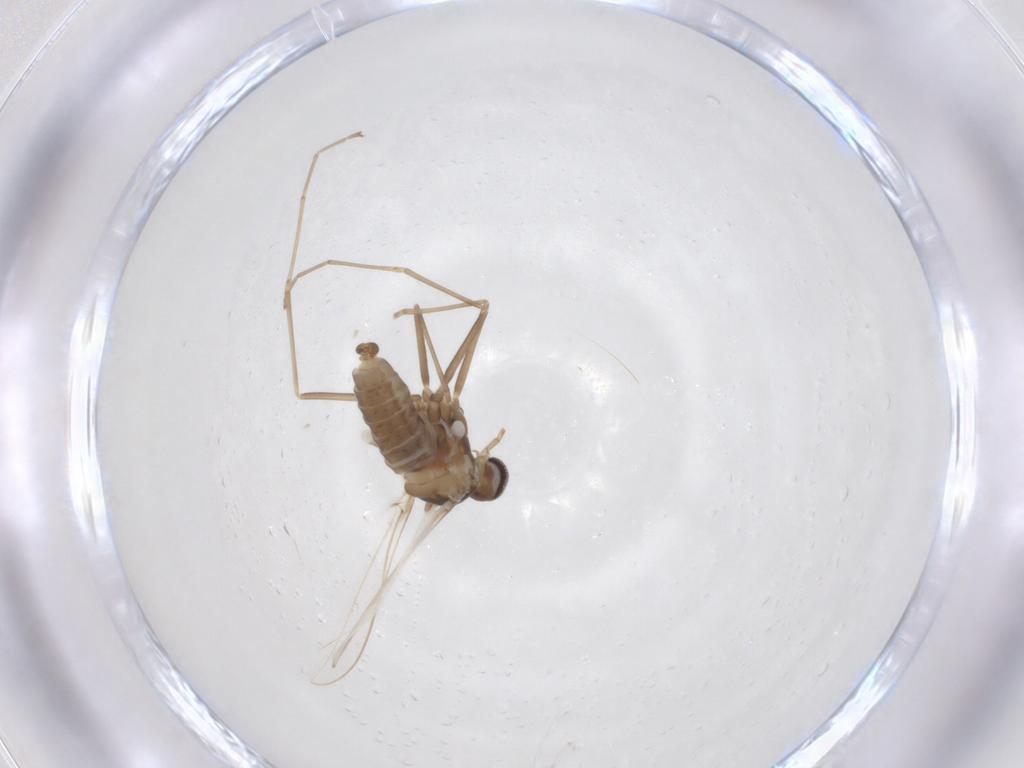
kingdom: Animalia
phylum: Arthropoda
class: Insecta
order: Diptera
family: Cecidomyiidae
